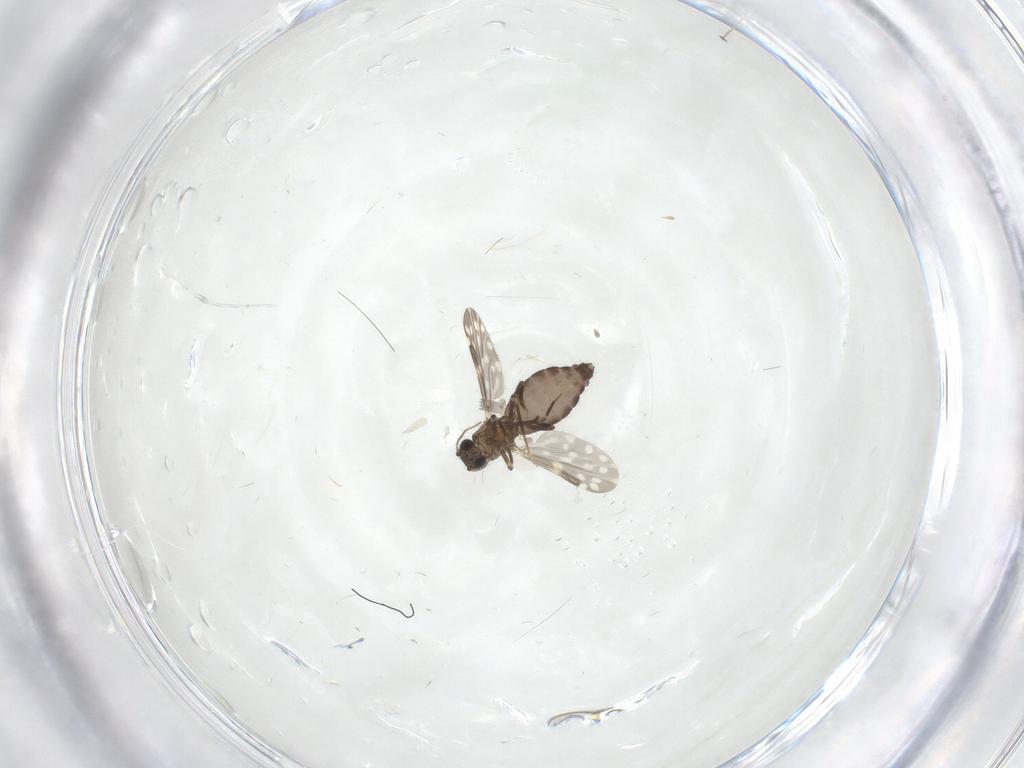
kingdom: Animalia
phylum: Arthropoda
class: Insecta
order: Diptera
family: Ceratopogonidae
